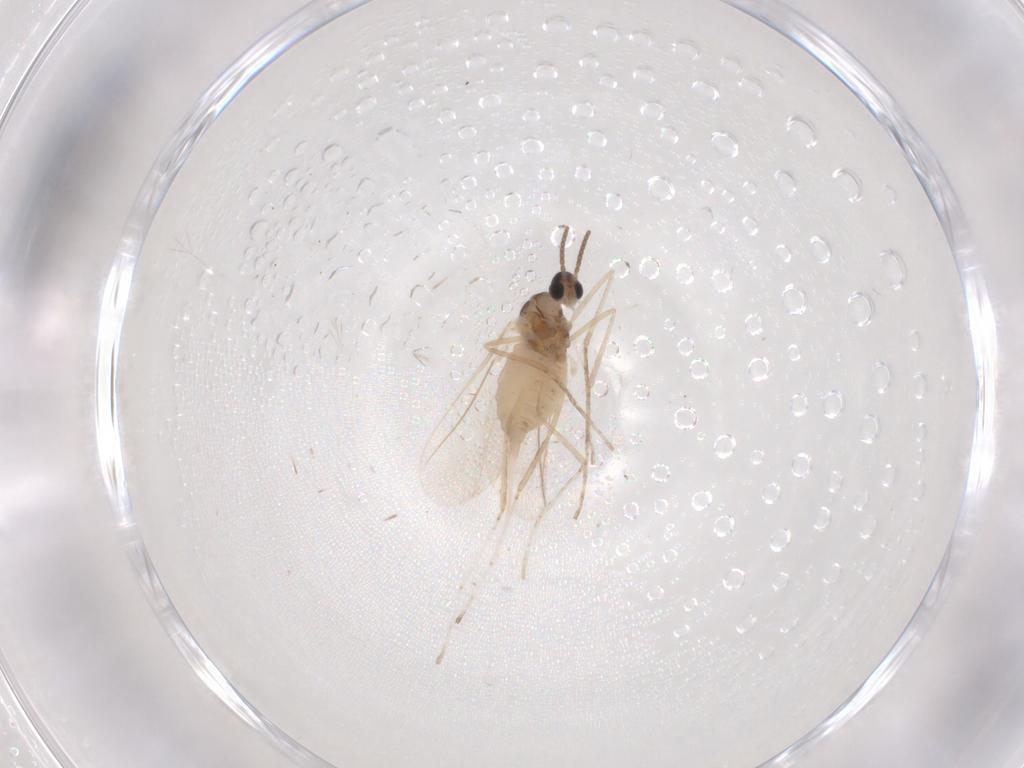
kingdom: Animalia
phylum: Arthropoda
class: Insecta
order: Diptera
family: Cecidomyiidae
